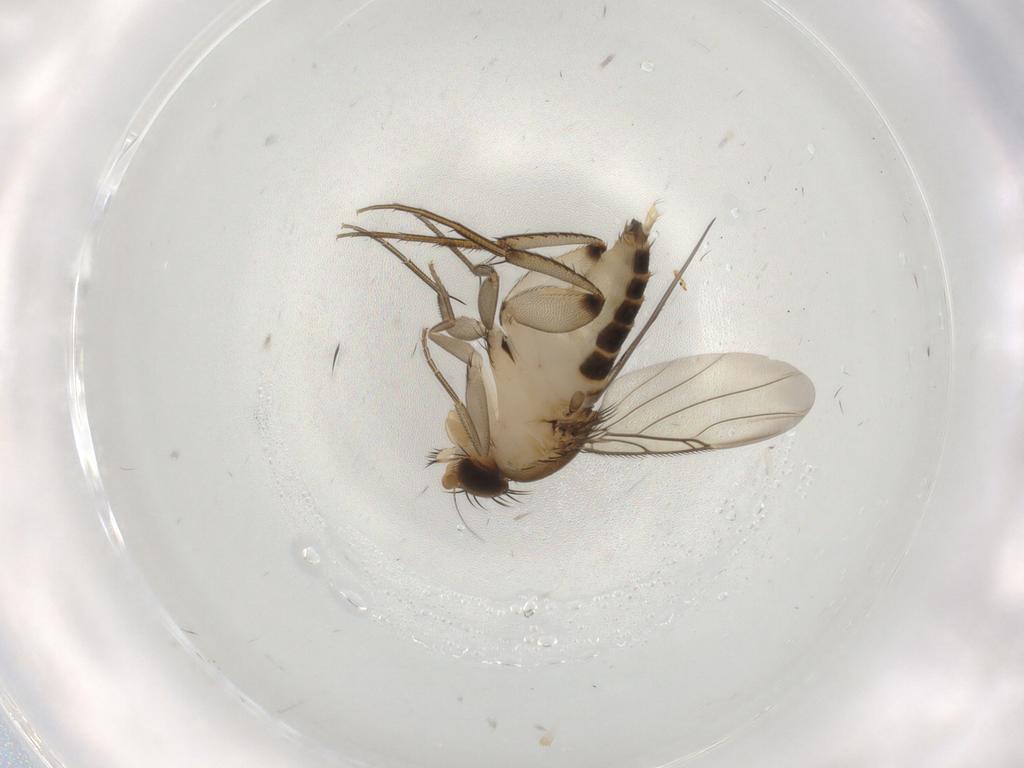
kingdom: Animalia
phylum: Arthropoda
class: Insecta
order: Diptera
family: Phoridae
